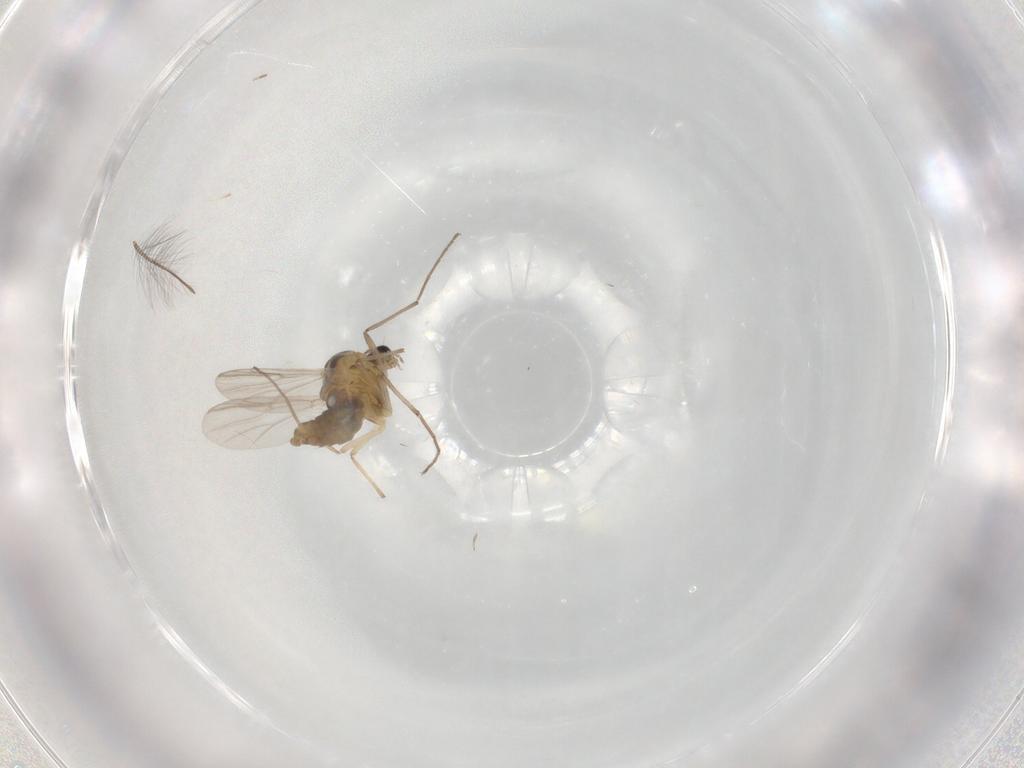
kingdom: Animalia
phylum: Arthropoda
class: Insecta
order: Diptera
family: Chironomidae
